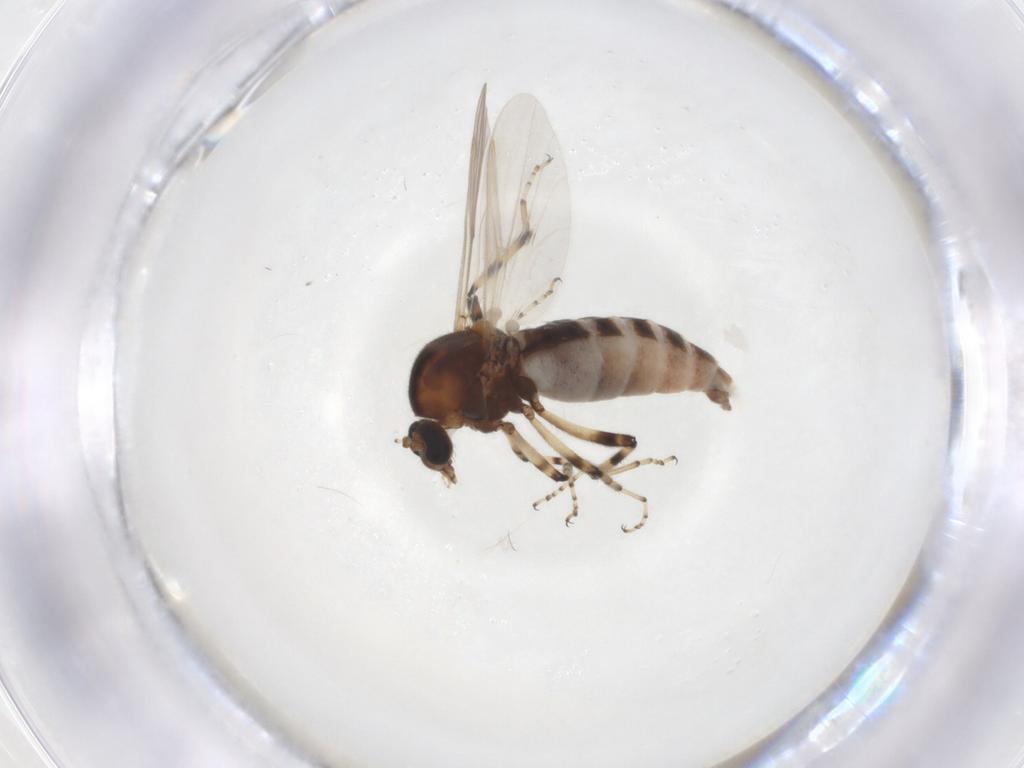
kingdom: Animalia
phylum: Arthropoda
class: Insecta
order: Diptera
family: Ceratopogonidae
